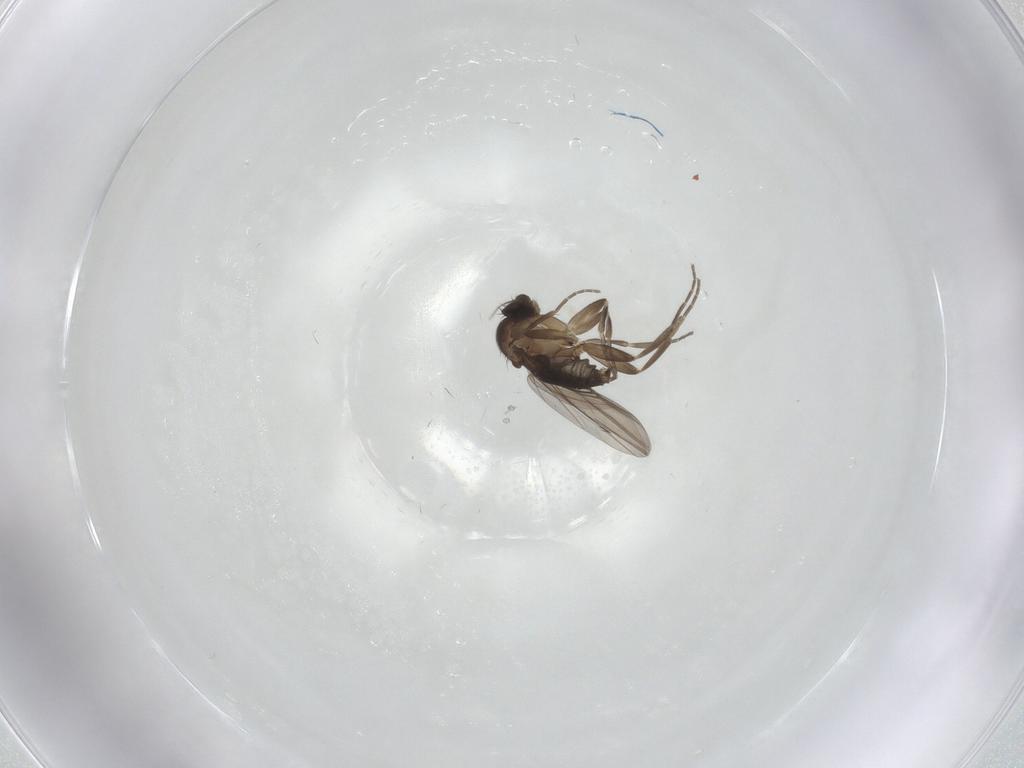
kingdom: Animalia
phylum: Arthropoda
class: Insecta
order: Diptera
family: Phoridae
